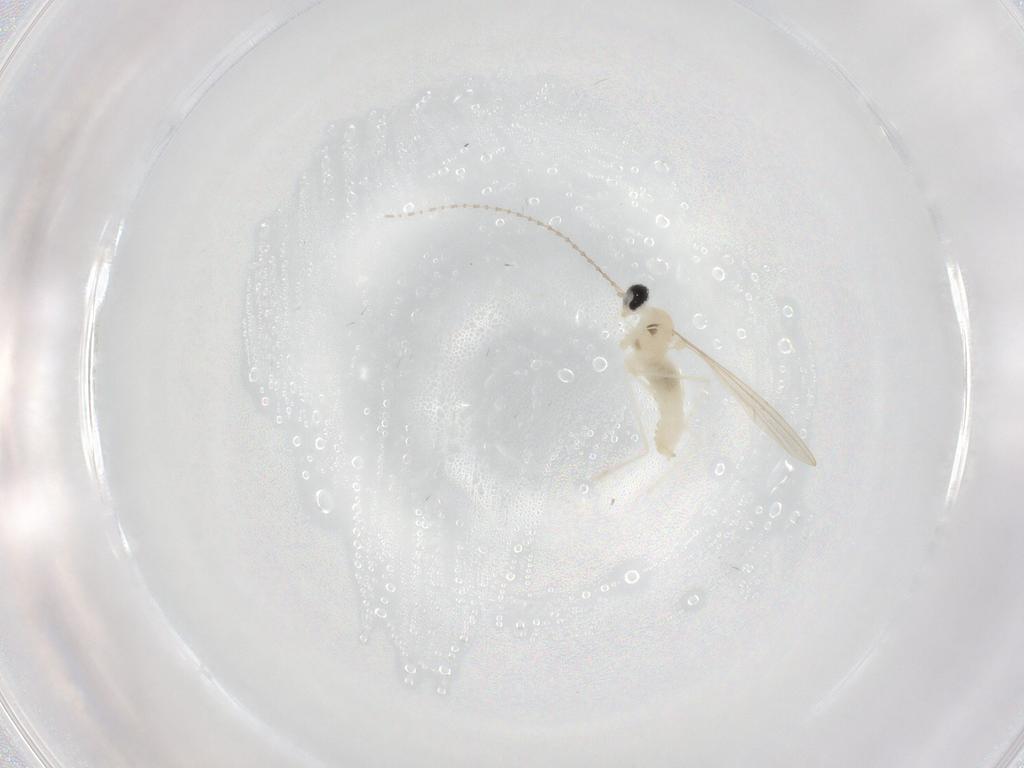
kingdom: Animalia
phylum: Arthropoda
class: Insecta
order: Diptera
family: Cecidomyiidae
